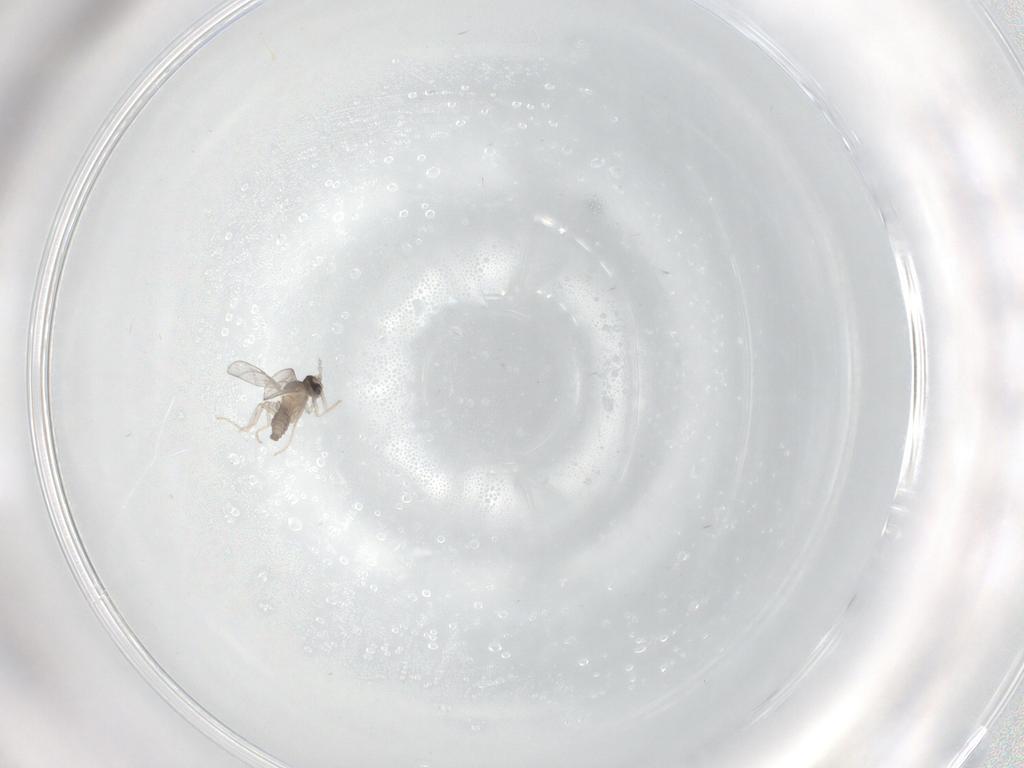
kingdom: Animalia
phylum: Arthropoda
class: Insecta
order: Diptera
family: Cecidomyiidae
